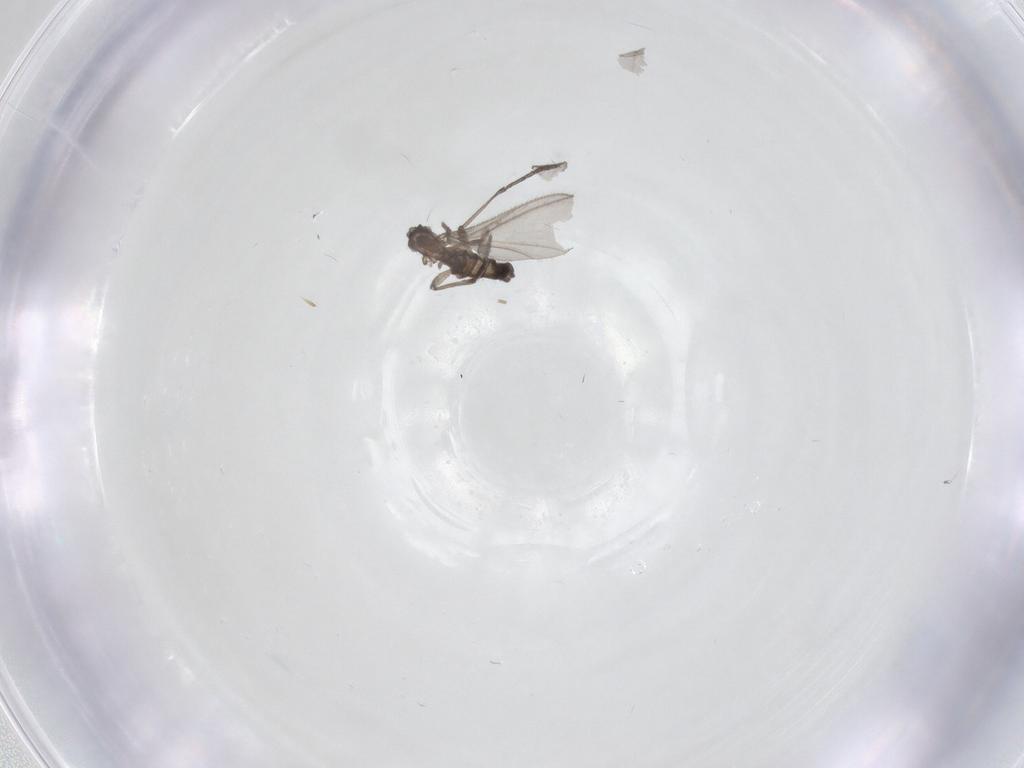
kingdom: Animalia
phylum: Arthropoda
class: Insecta
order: Diptera
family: Sciaridae
